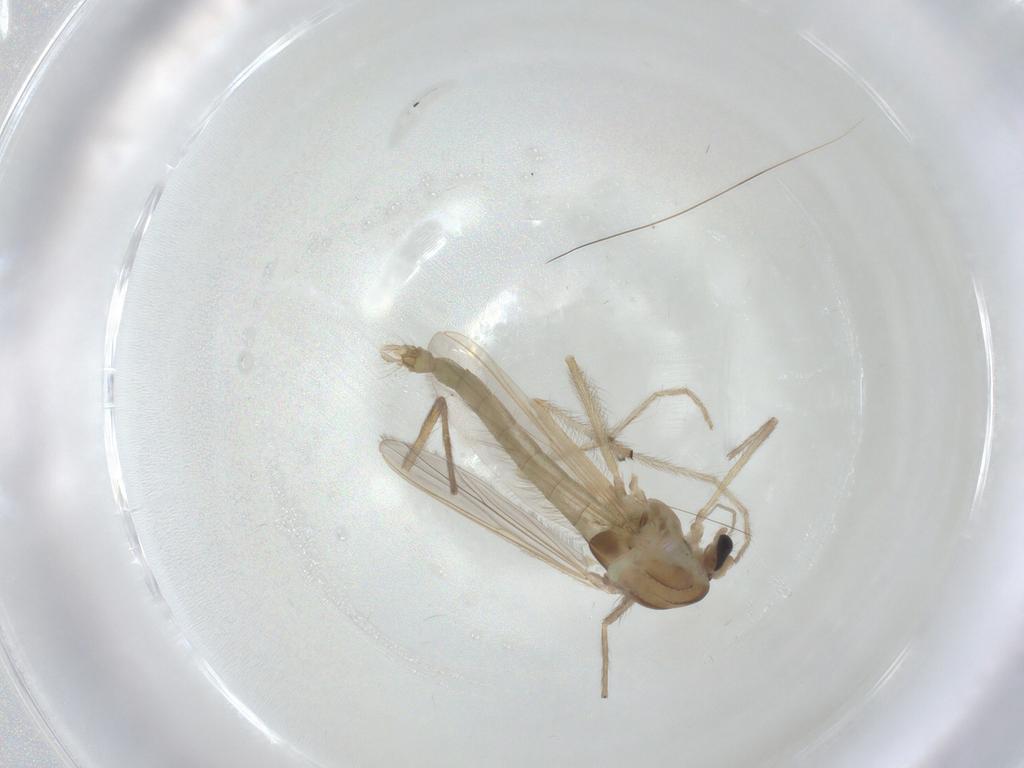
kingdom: Animalia
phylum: Arthropoda
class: Insecta
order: Diptera
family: Chironomidae
